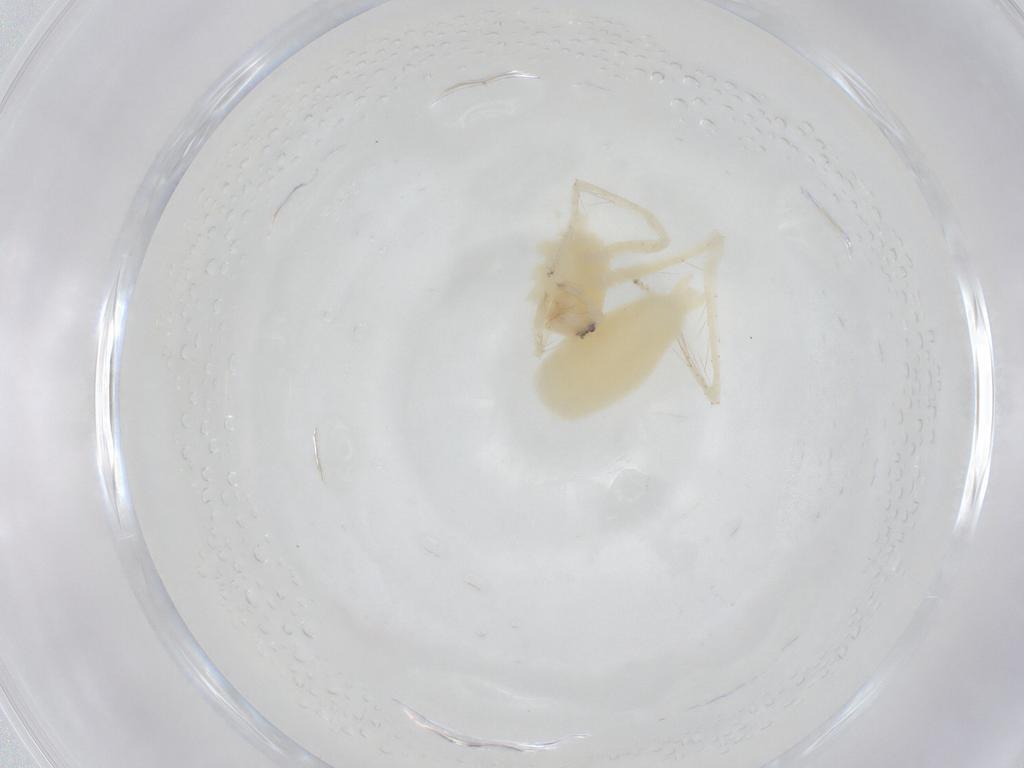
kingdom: Animalia
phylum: Arthropoda
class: Arachnida
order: Araneae
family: Anyphaenidae
